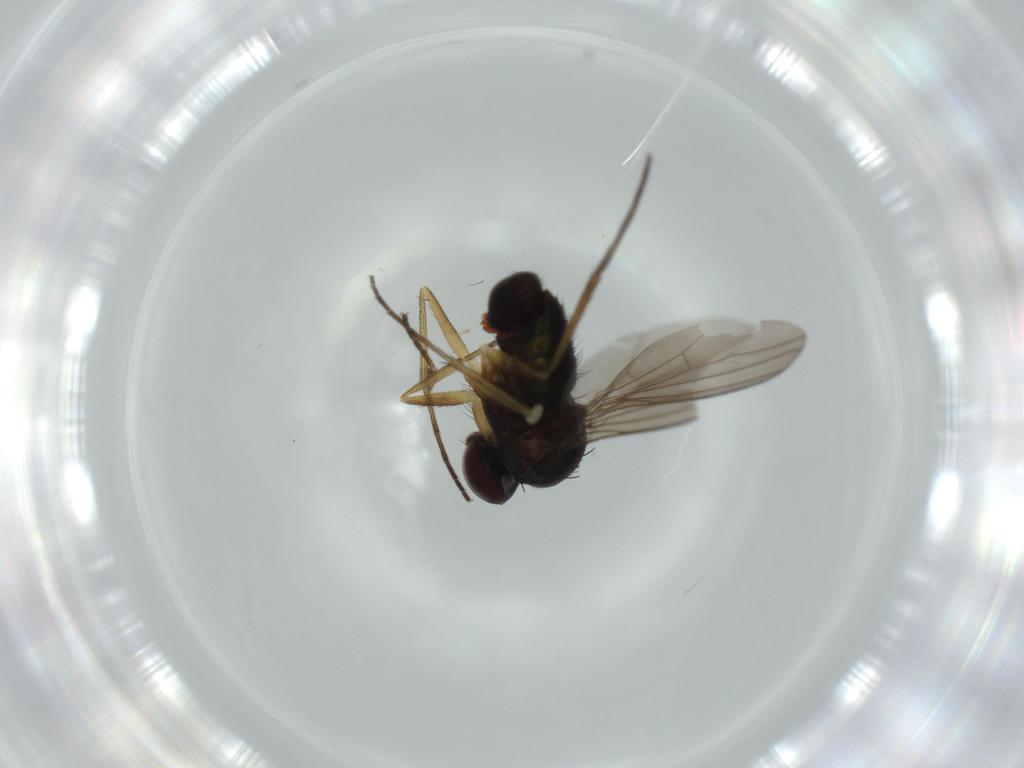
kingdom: Animalia
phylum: Arthropoda
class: Insecta
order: Diptera
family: Dolichopodidae
